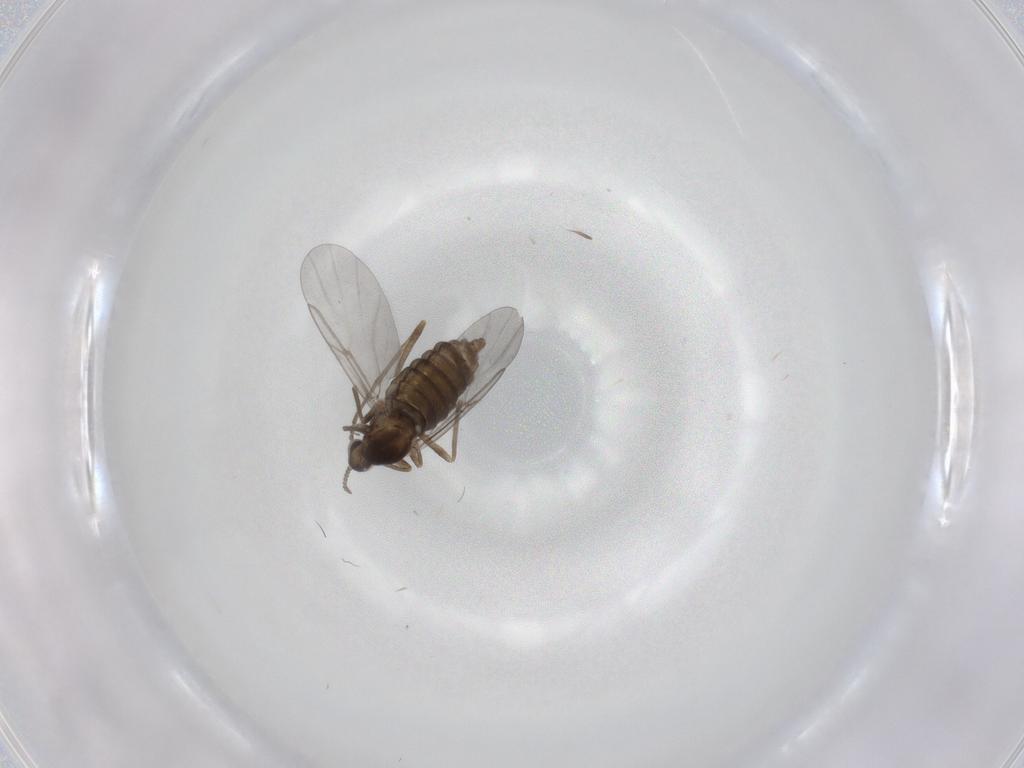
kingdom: Animalia
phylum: Arthropoda
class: Insecta
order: Diptera
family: Cecidomyiidae
